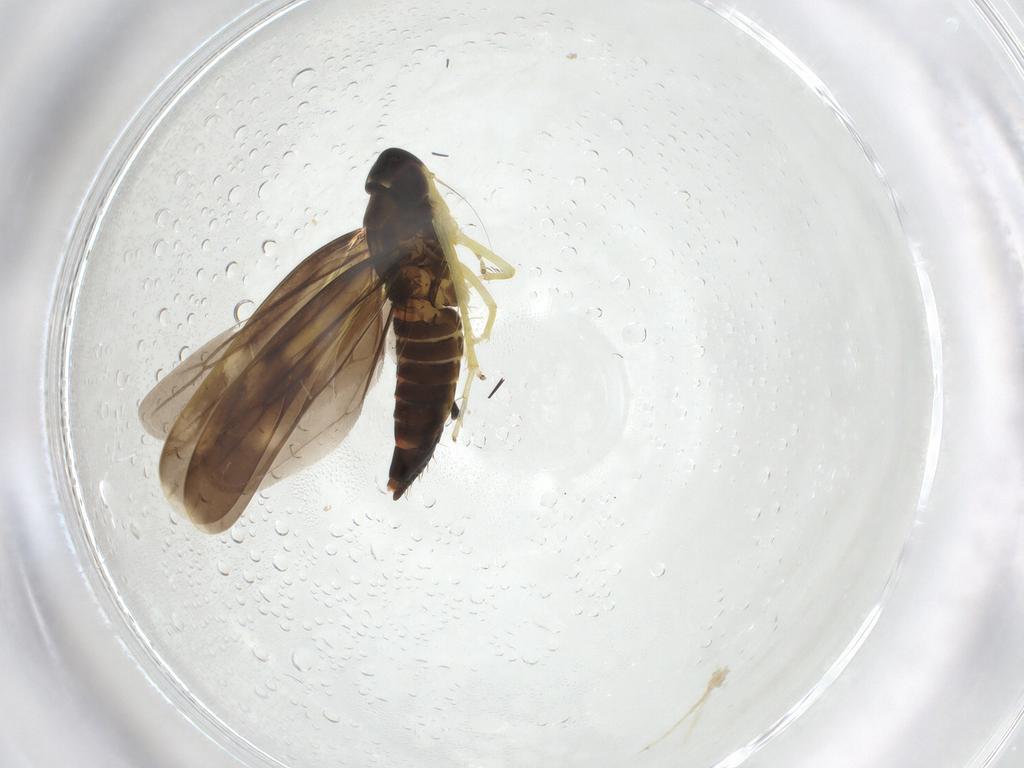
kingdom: Animalia
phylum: Arthropoda
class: Insecta
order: Hemiptera
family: Cicadellidae
